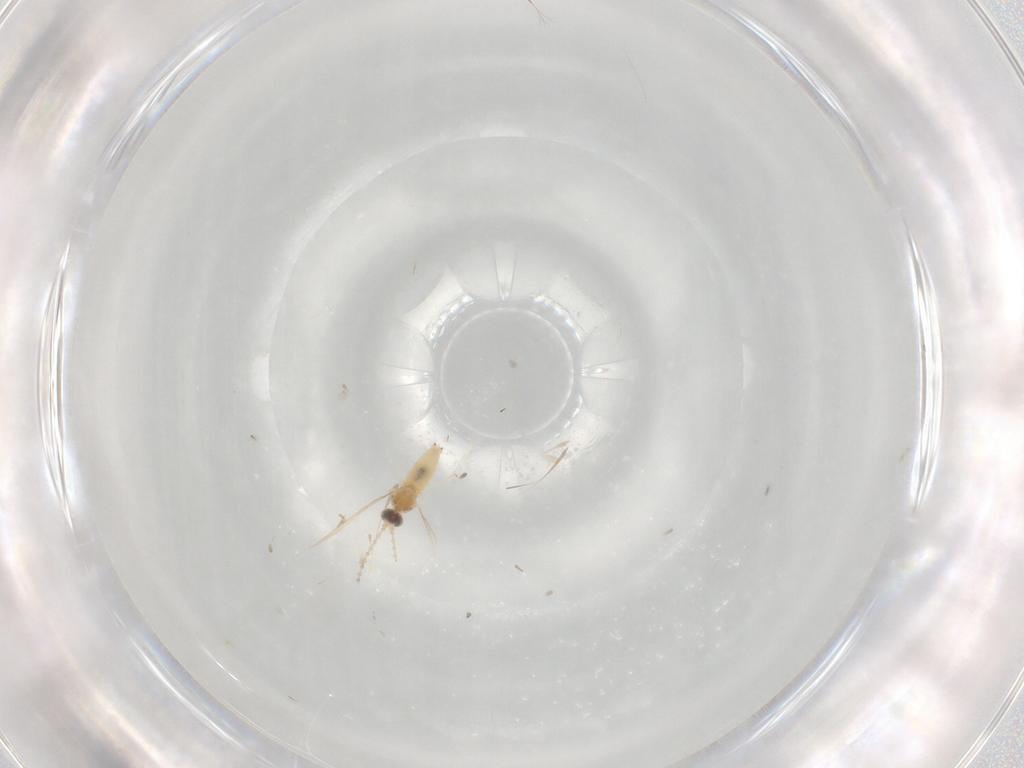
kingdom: Animalia
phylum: Arthropoda
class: Insecta
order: Diptera
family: Cecidomyiidae
